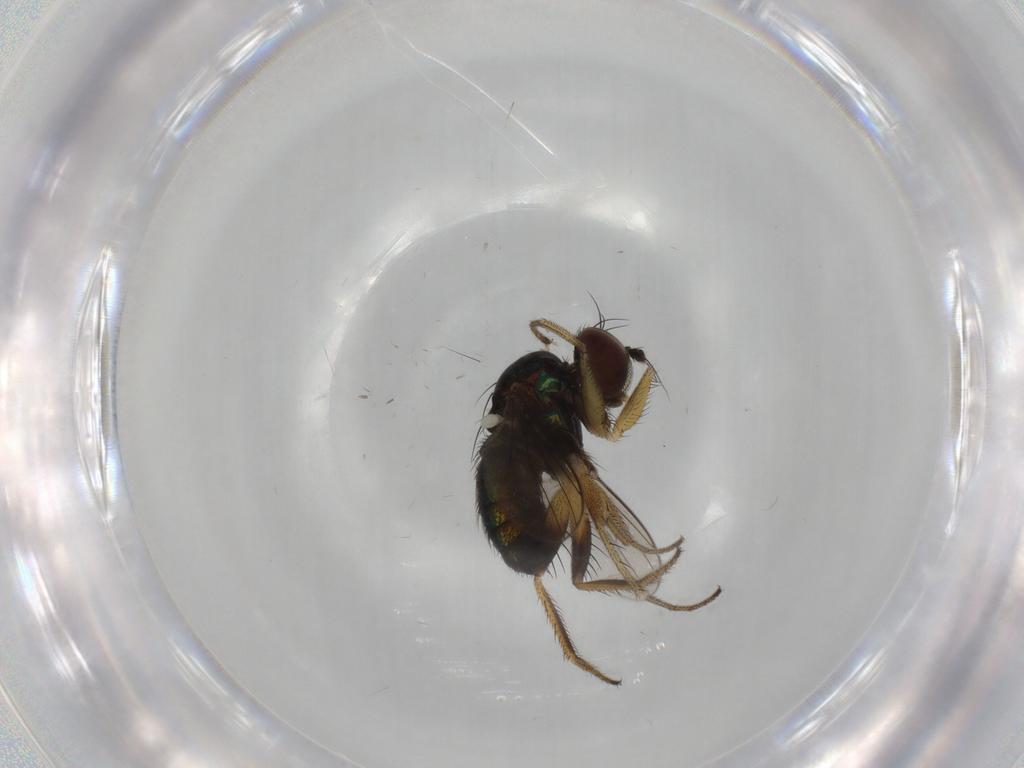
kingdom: Animalia
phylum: Arthropoda
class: Insecta
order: Diptera
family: Dolichopodidae
